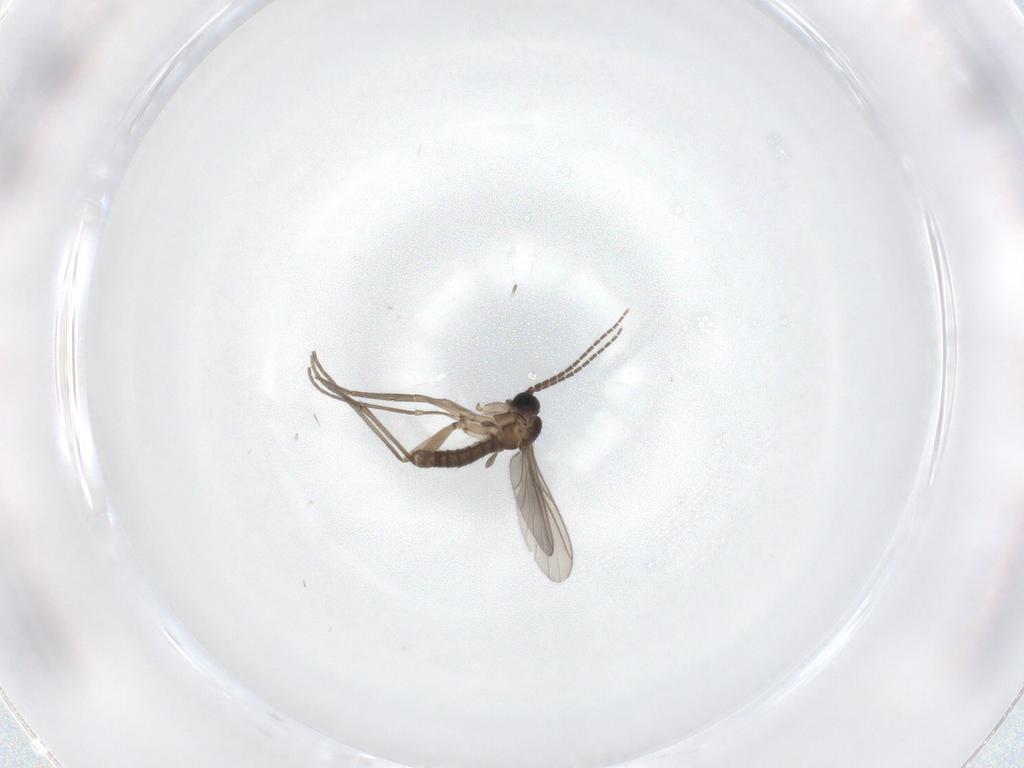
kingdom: Animalia
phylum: Arthropoda
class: Insecta
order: Diptera
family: Sciaridae
